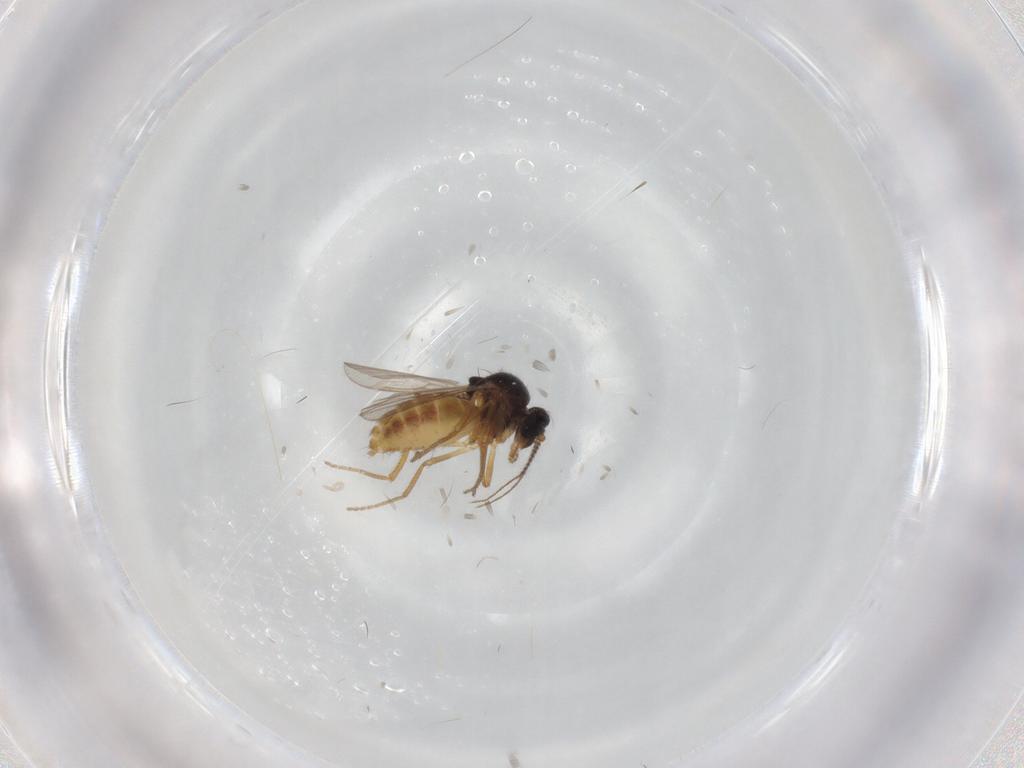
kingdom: Animalia
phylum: Arthropoda
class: Insecta
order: Diptera
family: Ceratopogonidae
